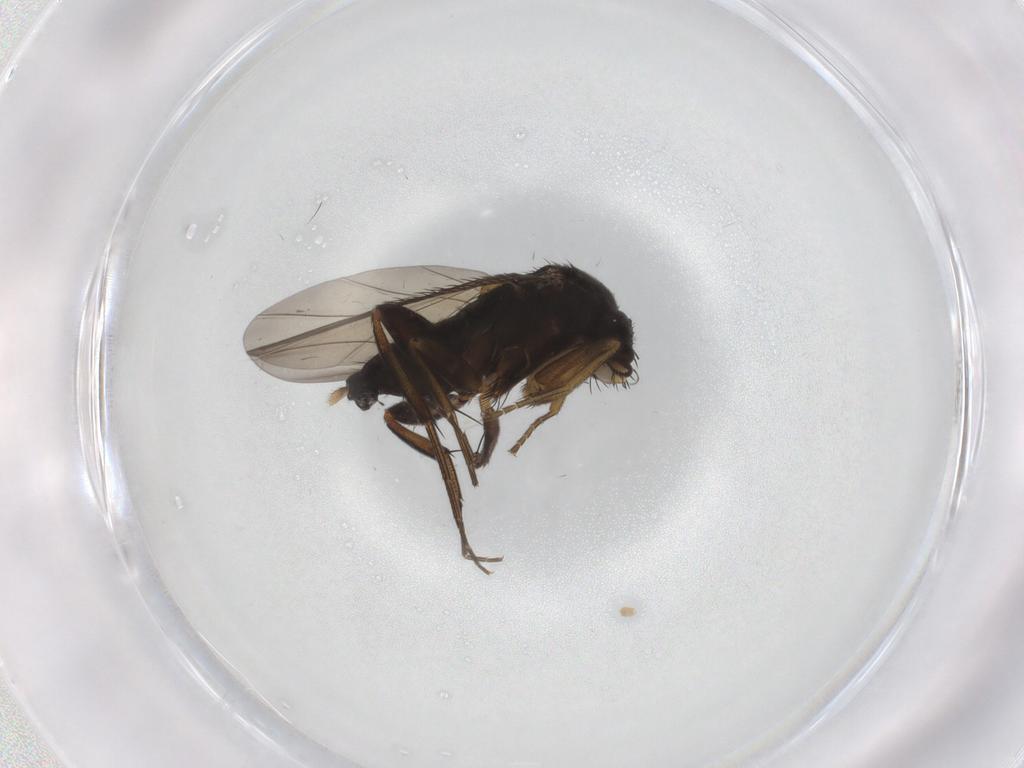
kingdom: Animalia
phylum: Arthropoda
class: Insecta
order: Diptera
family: Phoridae
